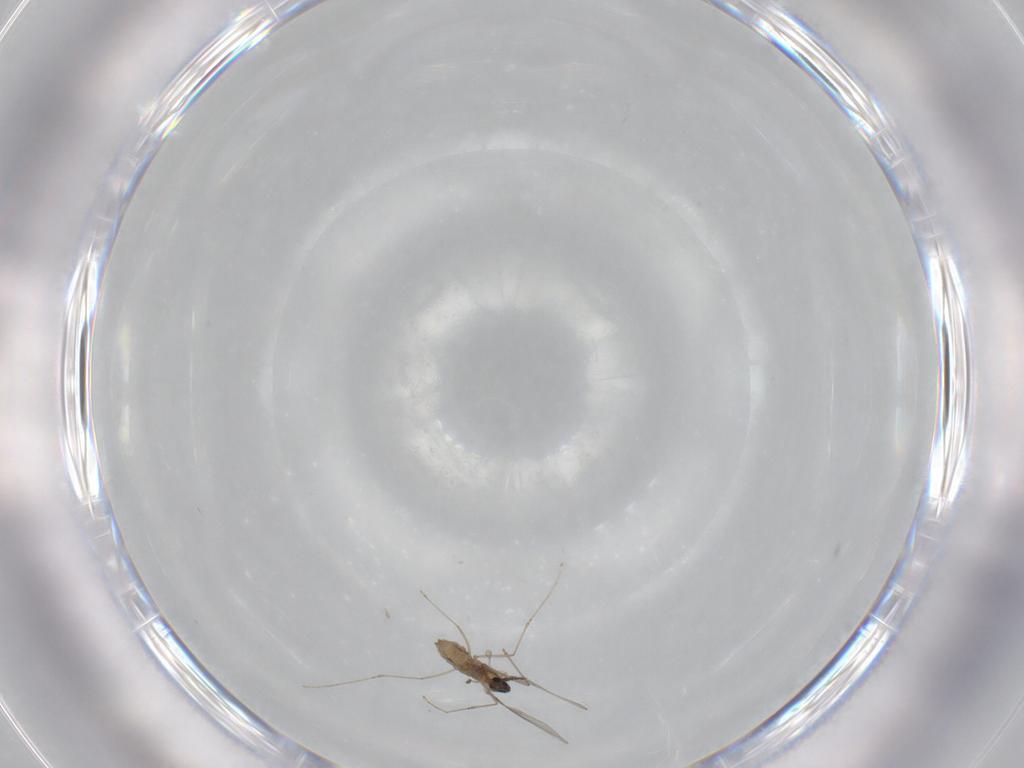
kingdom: Animalia
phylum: Arthropoda
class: Insecta
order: Diptera
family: Cecidomyiidae
